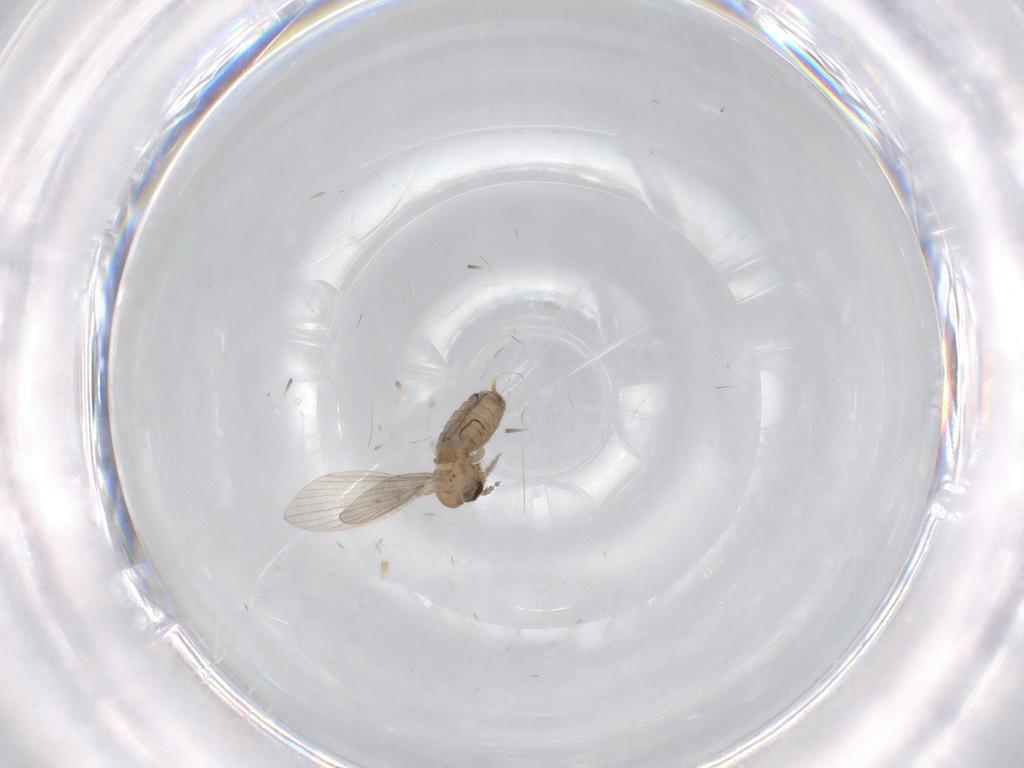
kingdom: Animalia
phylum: Arthropoda
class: Insecta
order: Diptera
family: Psychodidae
